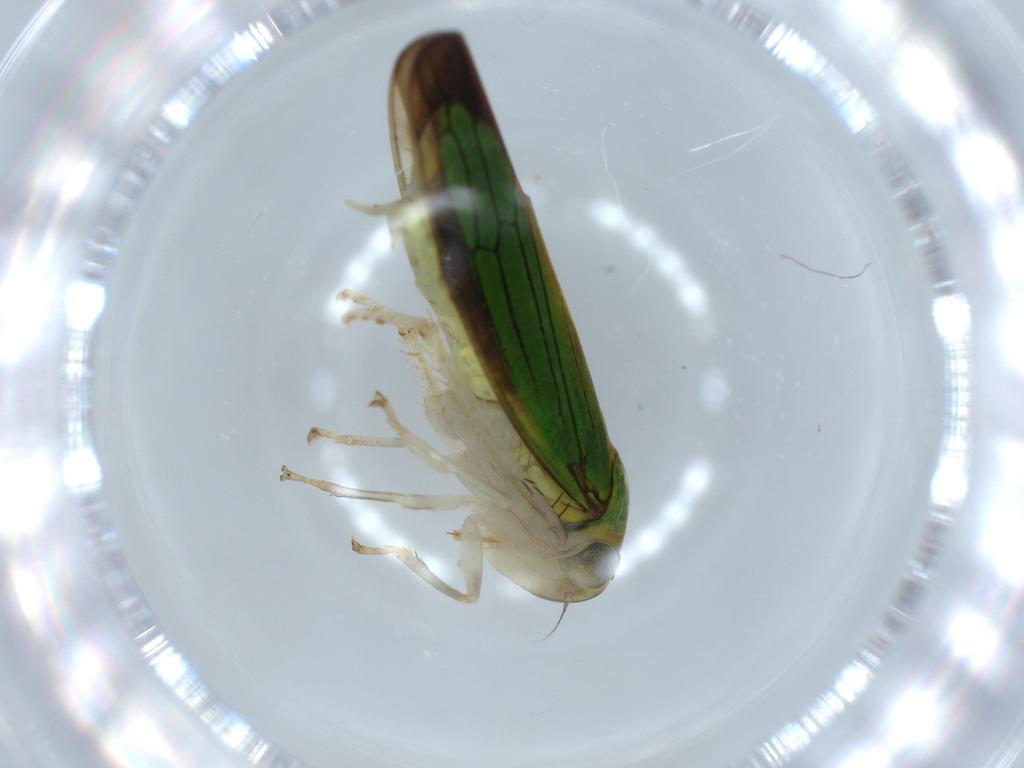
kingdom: Animalia
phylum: Arthropoda
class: Insecta
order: Hemiptera
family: Cicadellidae
